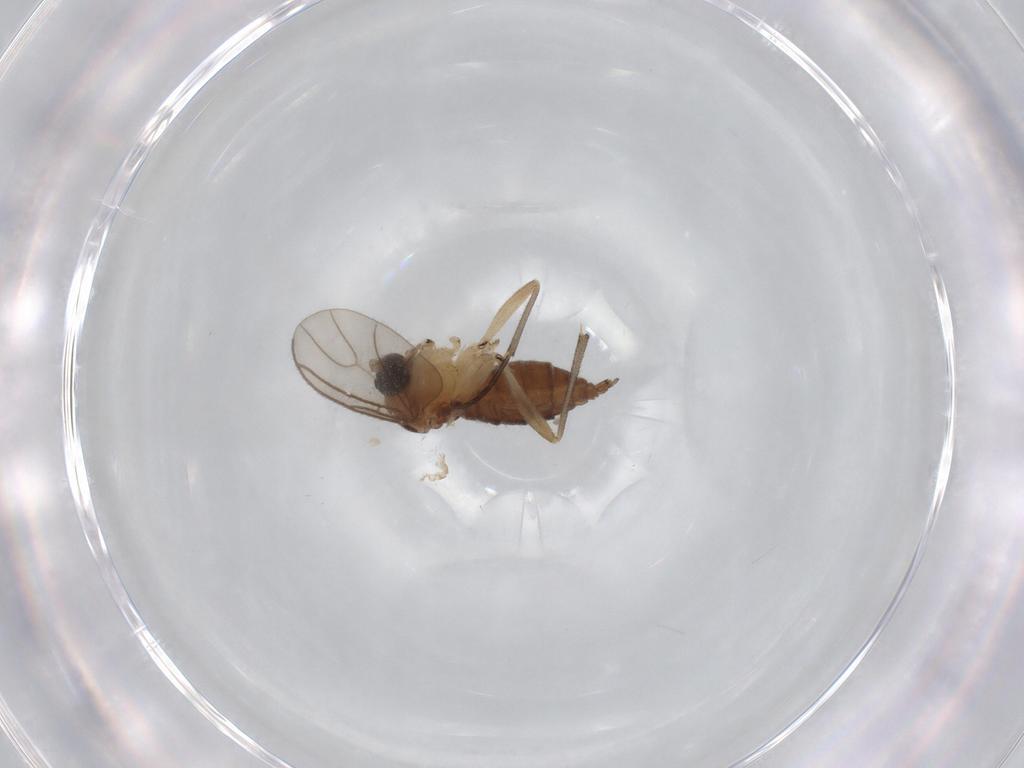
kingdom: Animalia
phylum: Arthropoda
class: Insecta
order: Diptera
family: Sciaridae
